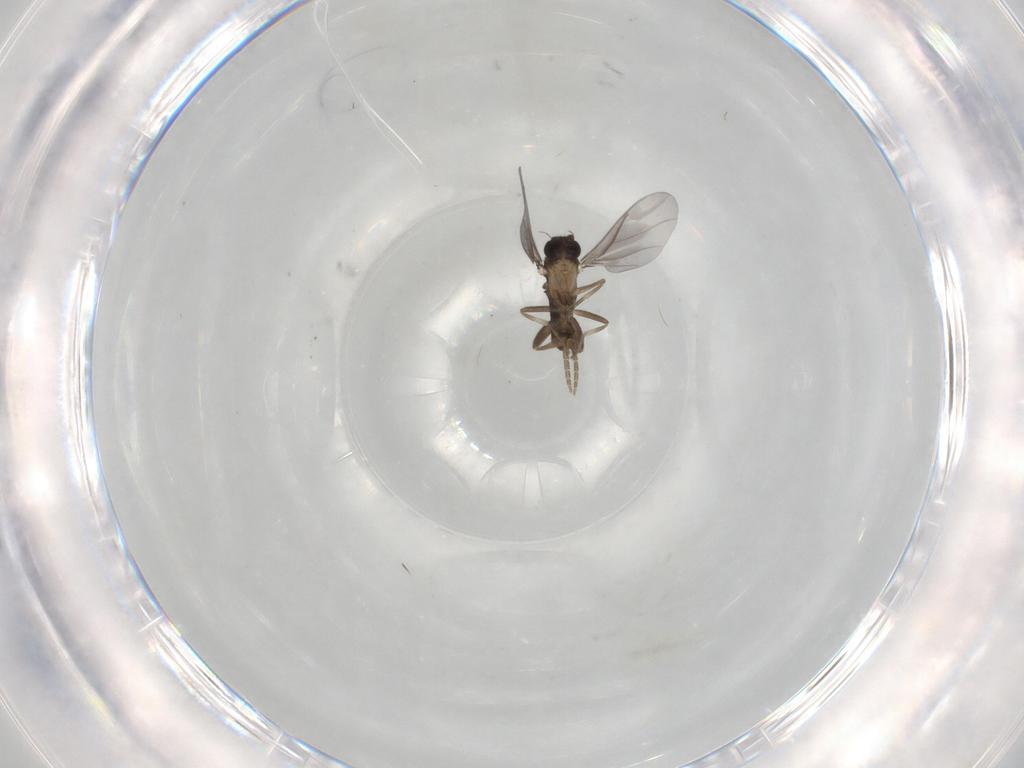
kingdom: Animalia
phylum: Arthropoda
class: Insecta
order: Diptera
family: Phoridae
